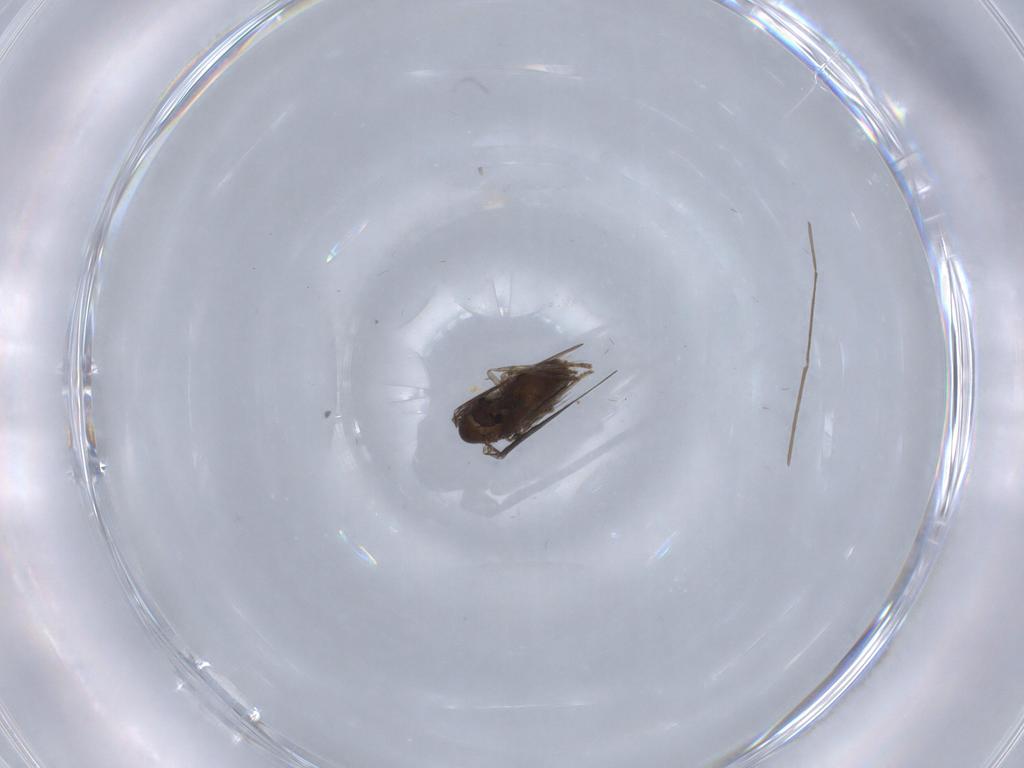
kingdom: Animalia
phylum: Arthropoda
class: Insecta
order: Diptera
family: Psychodidae
